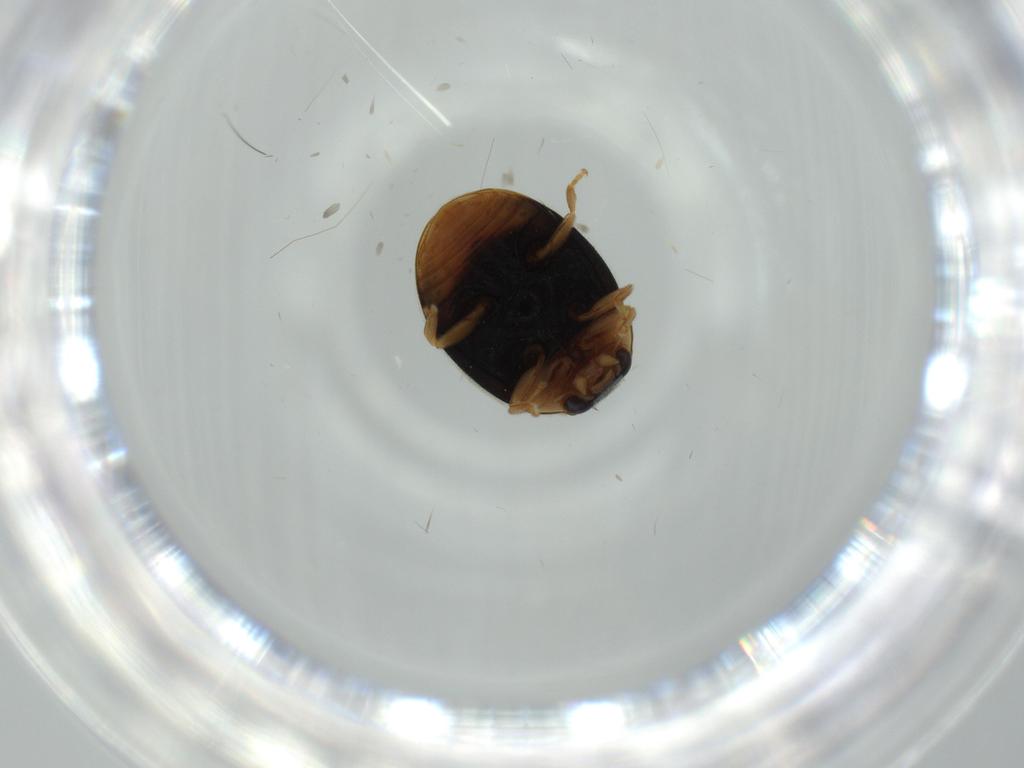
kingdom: Animalia
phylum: Arthropoda
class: Insecta
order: Coleoptera
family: Coccinellidae
